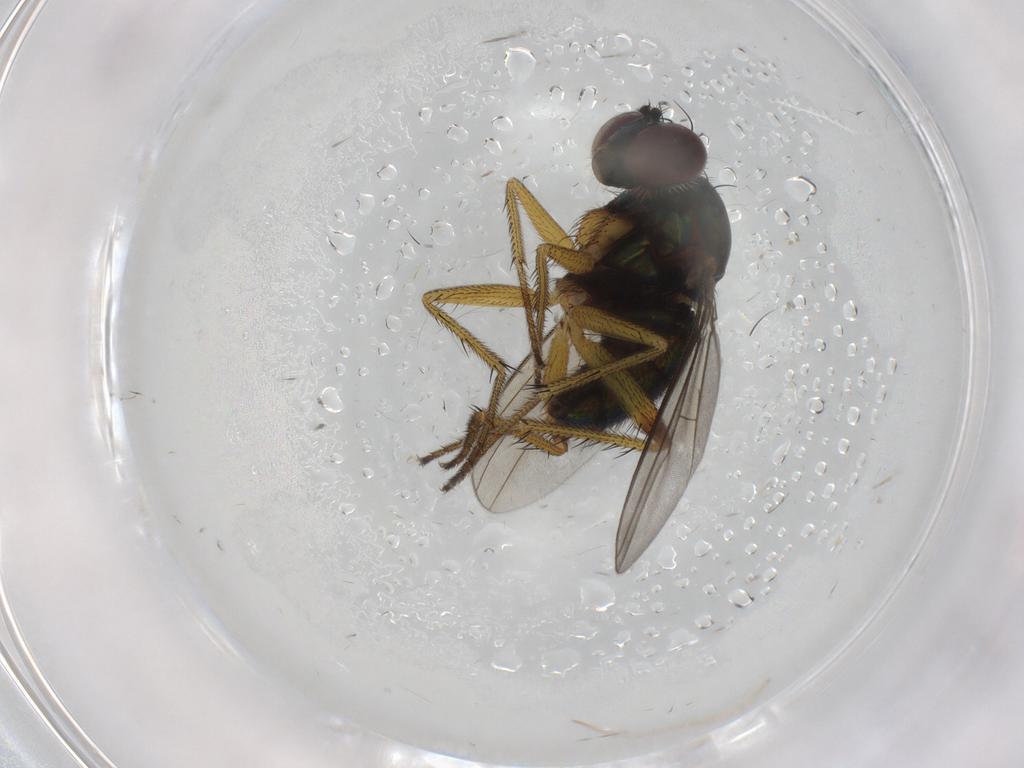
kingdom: Animalia
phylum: Arthropoda
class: Insecta
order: Diptera
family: Dolichopodidae
